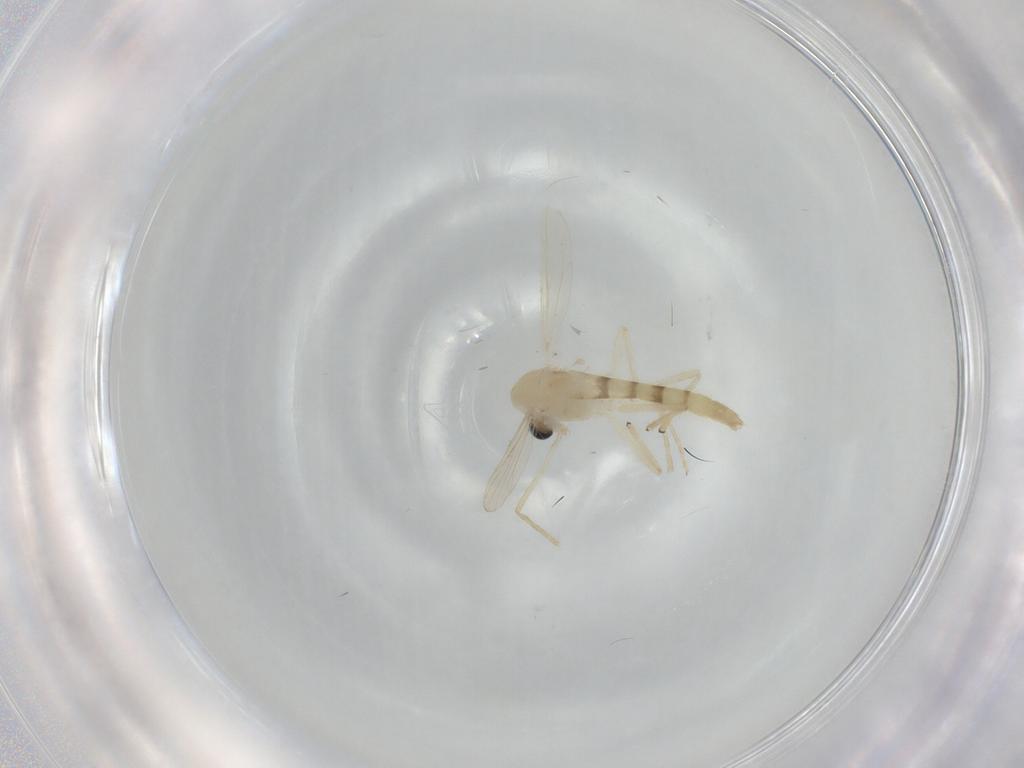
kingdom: Animalia
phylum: Arthropoda
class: Insecta
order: Diptera
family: Chironomidae
